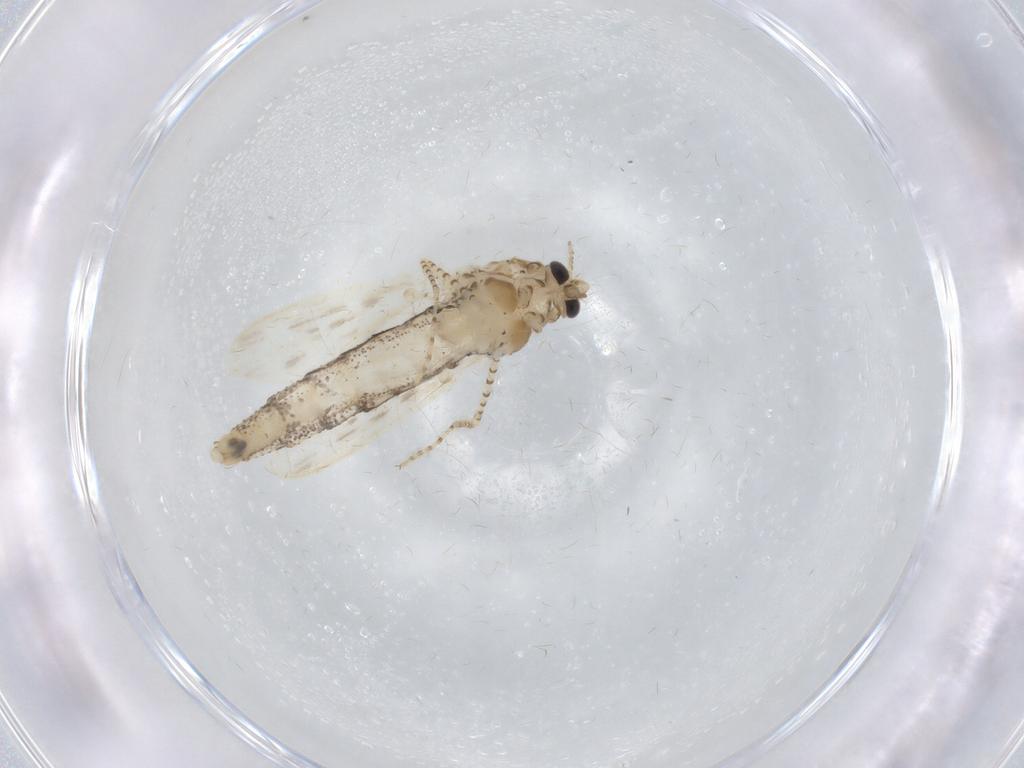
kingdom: Animalia
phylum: Arthropoda
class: Insecta
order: Diptera
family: Chaoboridae
